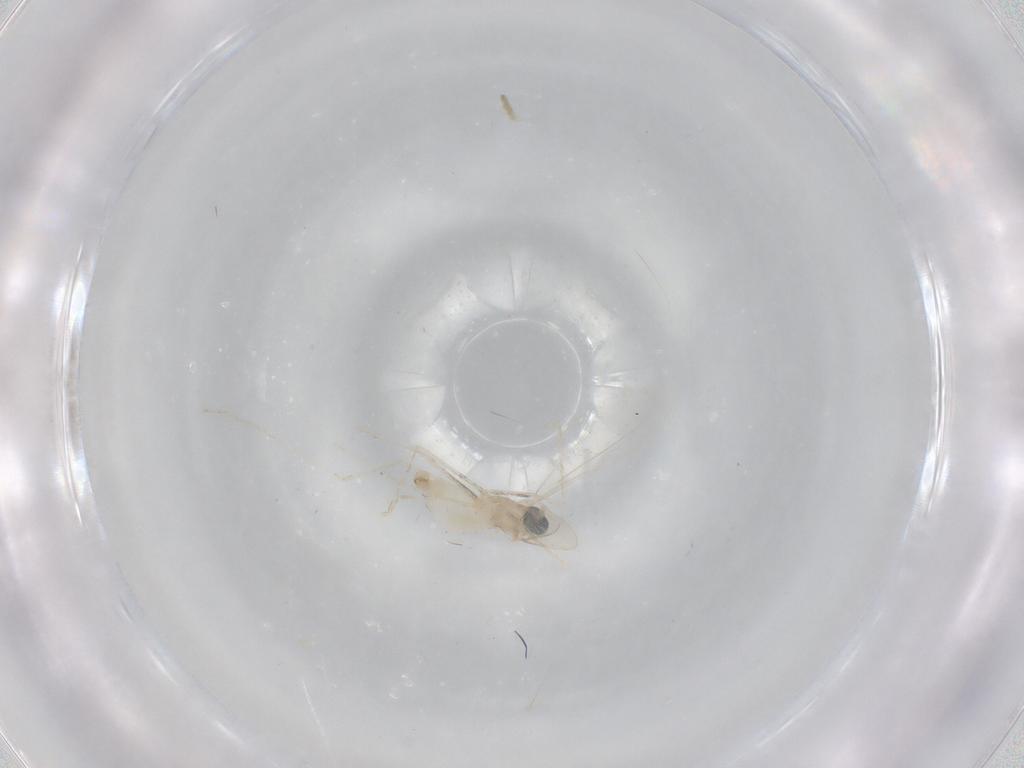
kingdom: Animalia
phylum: Arthropoda
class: Insecta
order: Diptera
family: Cecidomyiidae
